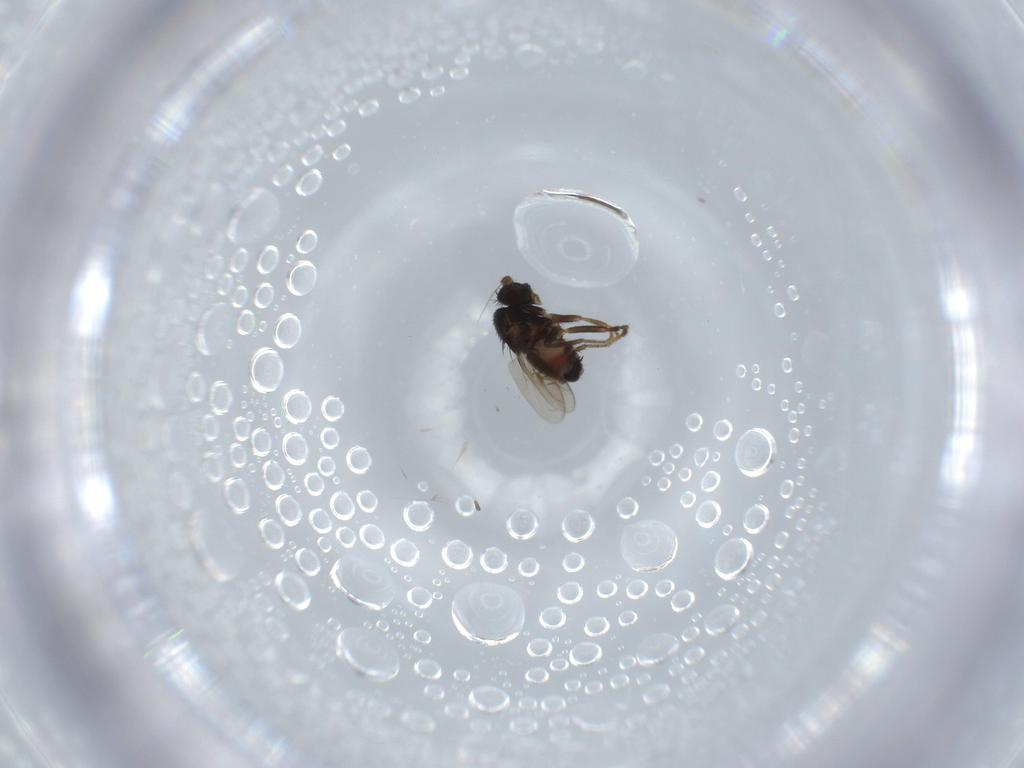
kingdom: Animalia
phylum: Arthropoda
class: Insecta
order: Diptera
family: Sphaeroceridae
